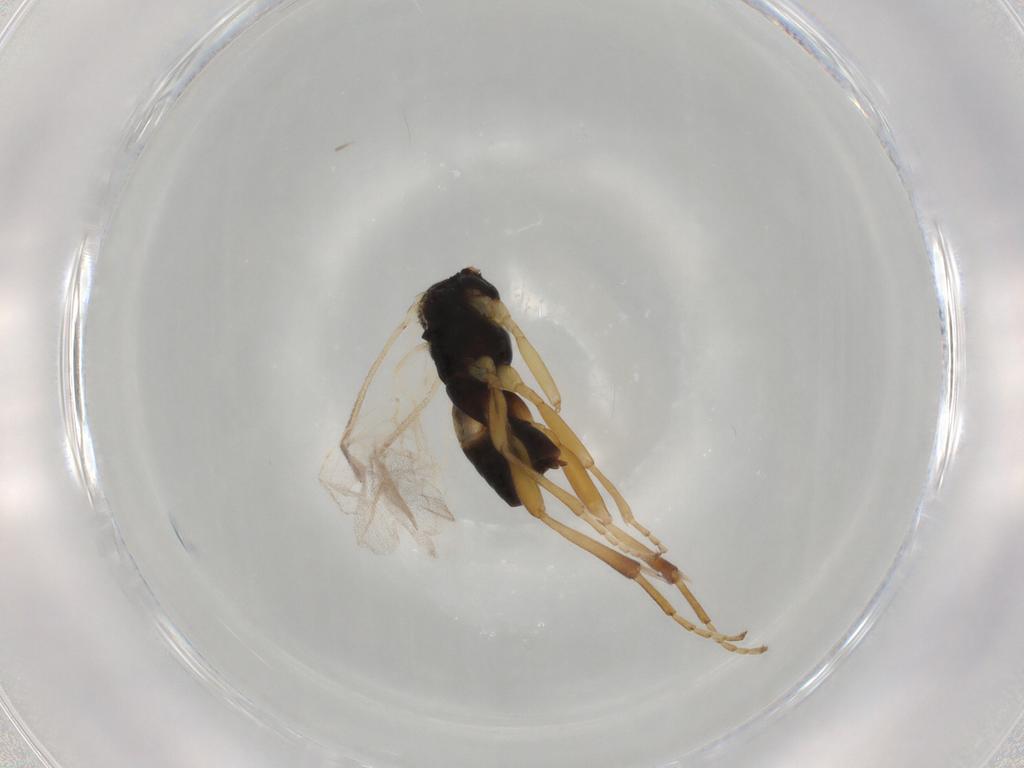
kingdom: Animalia
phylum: Arthropoda
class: Insecta
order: Hymenoptera
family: Braconidae
